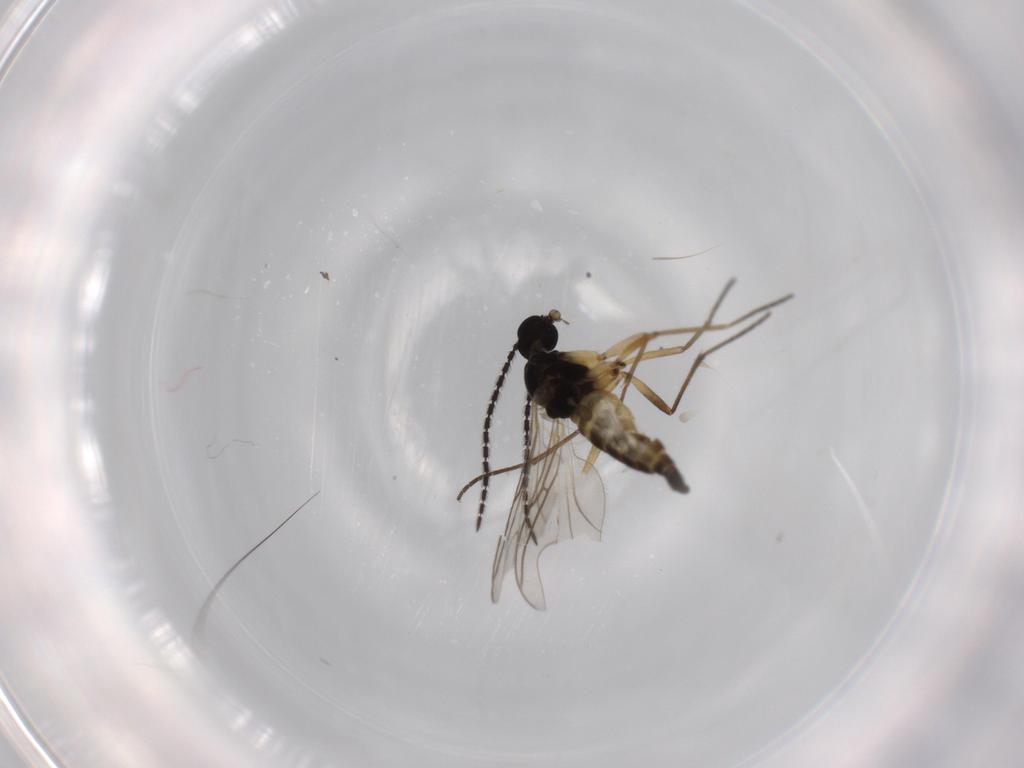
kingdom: Animalia
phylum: Arthropoda
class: Insecta
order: Diptera
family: Sciaridae
